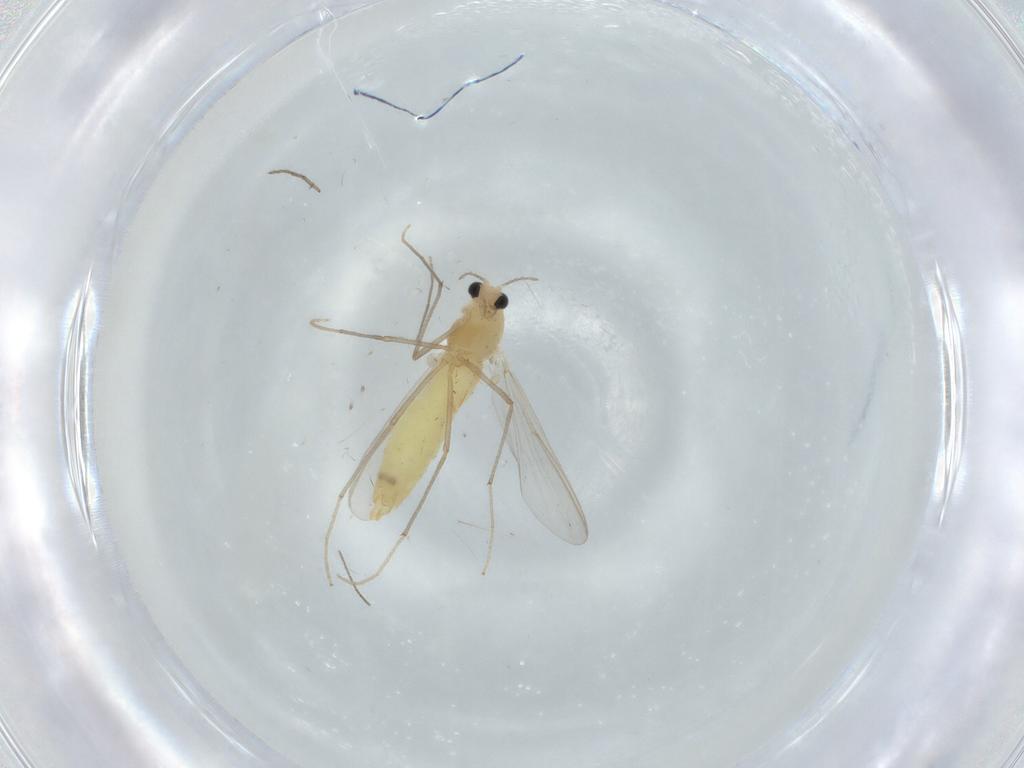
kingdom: Animalia
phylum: Arthropoda
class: Insecta
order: Diptera
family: Chironomidae
